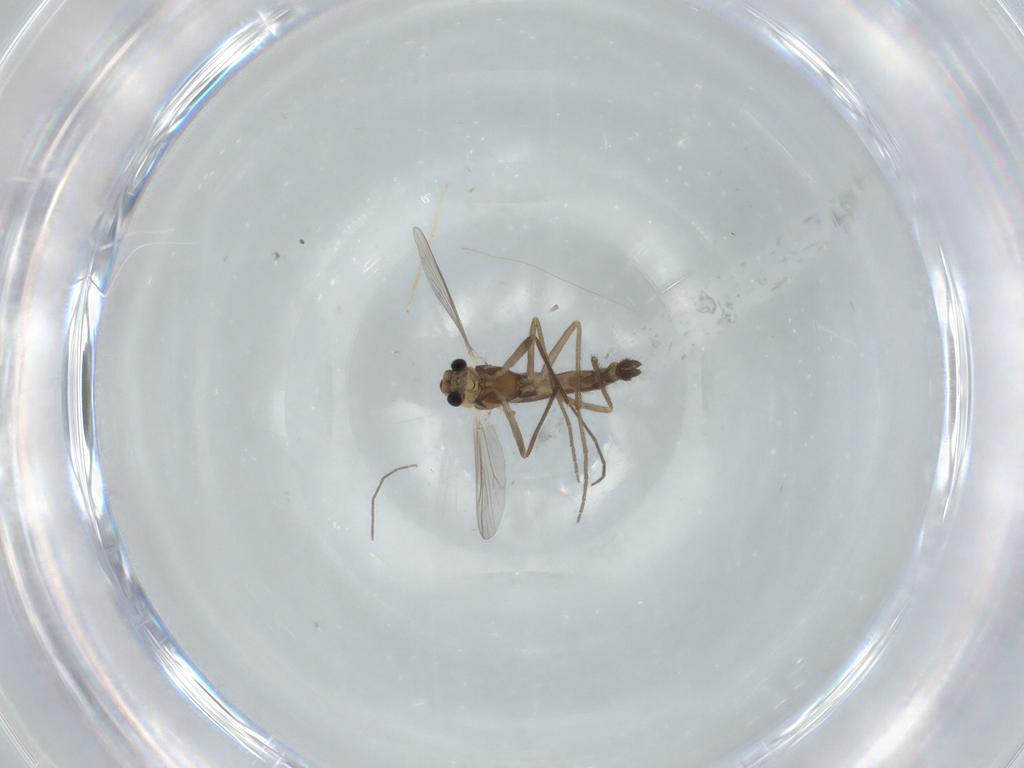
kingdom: Animalia
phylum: Arthropoda
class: Insecta
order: Diptera
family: Chironomidae
